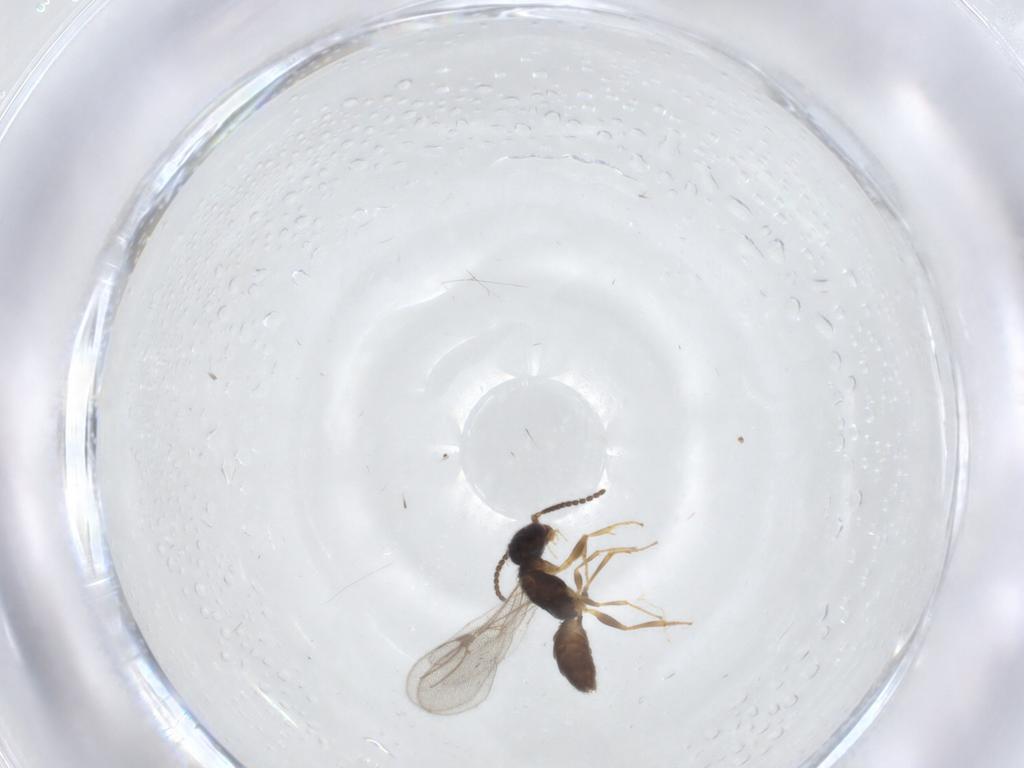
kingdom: Animalia
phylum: Arthropoda
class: Insecta
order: Hymenoptera
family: Bethylidae
